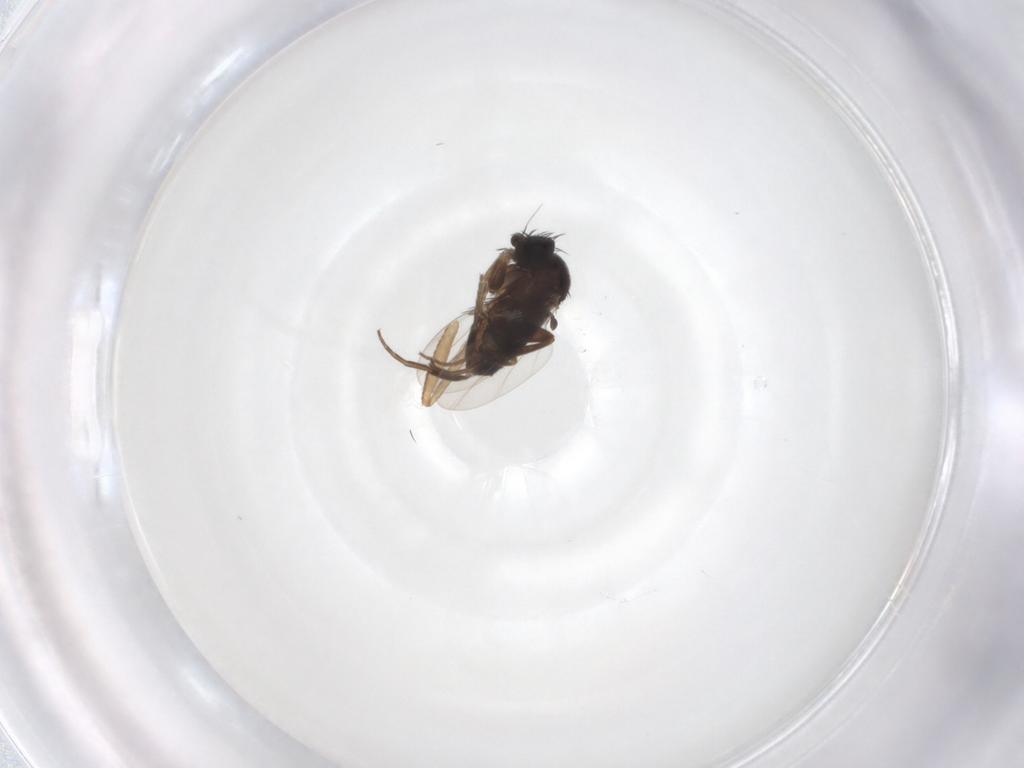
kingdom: Animalia
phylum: Arthropoda
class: Insecta
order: Diptera
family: Phoridae
